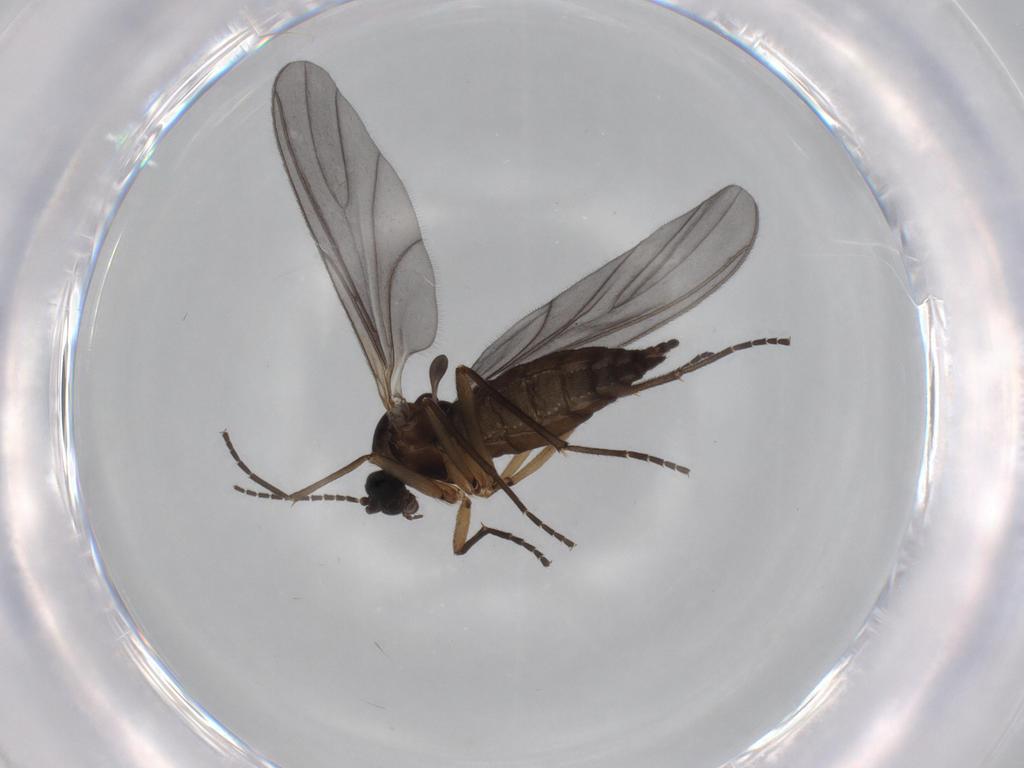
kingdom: Animalia
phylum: Arthropoda
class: Insecta
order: Diptera
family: Sciaridae
